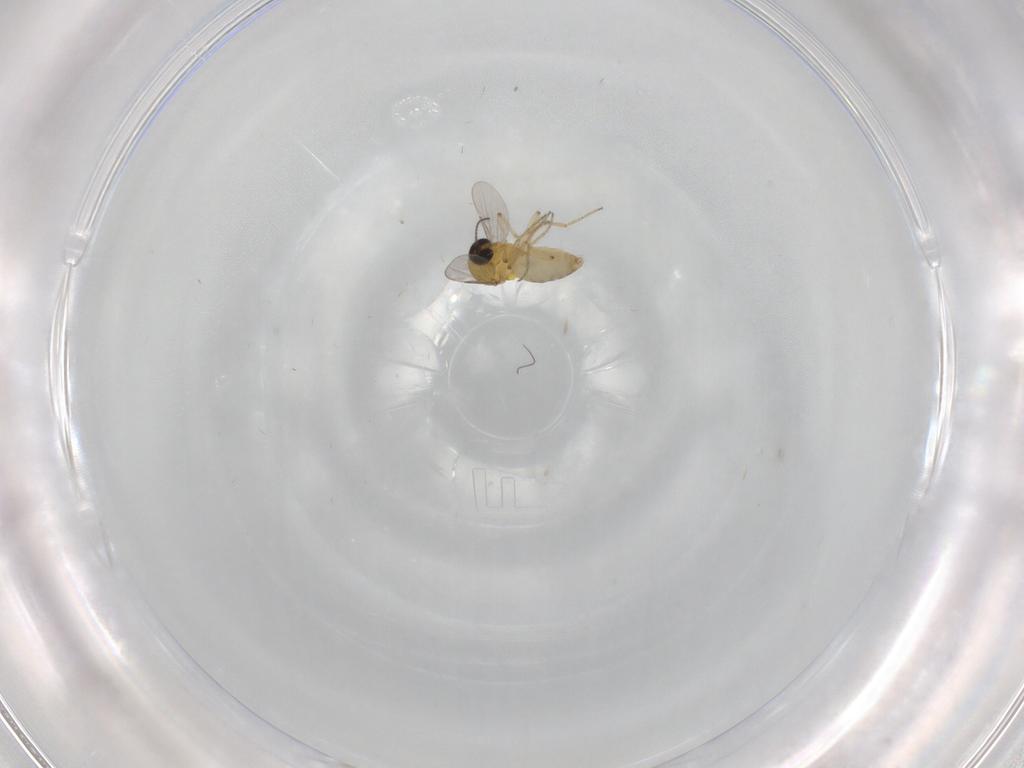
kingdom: Animalia
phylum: Arthropoda
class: Insecta
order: Diptera
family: Ceratopogonidae
